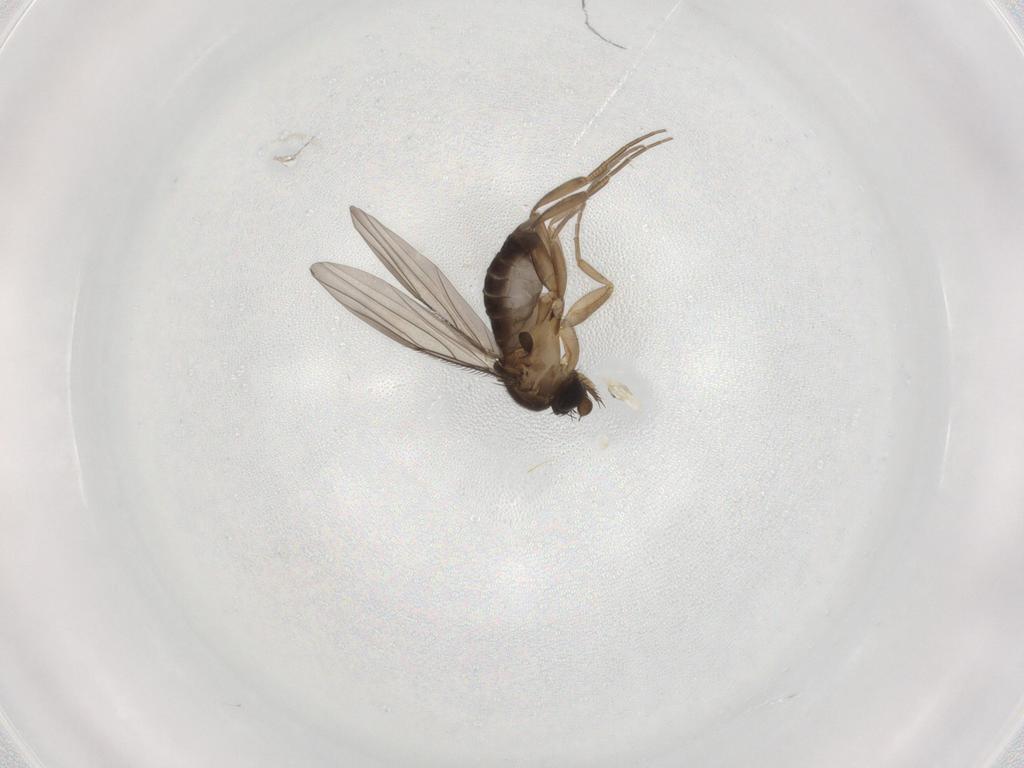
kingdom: Animalia
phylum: Arthropoda
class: Insecta
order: Diptera
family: Phoridae
